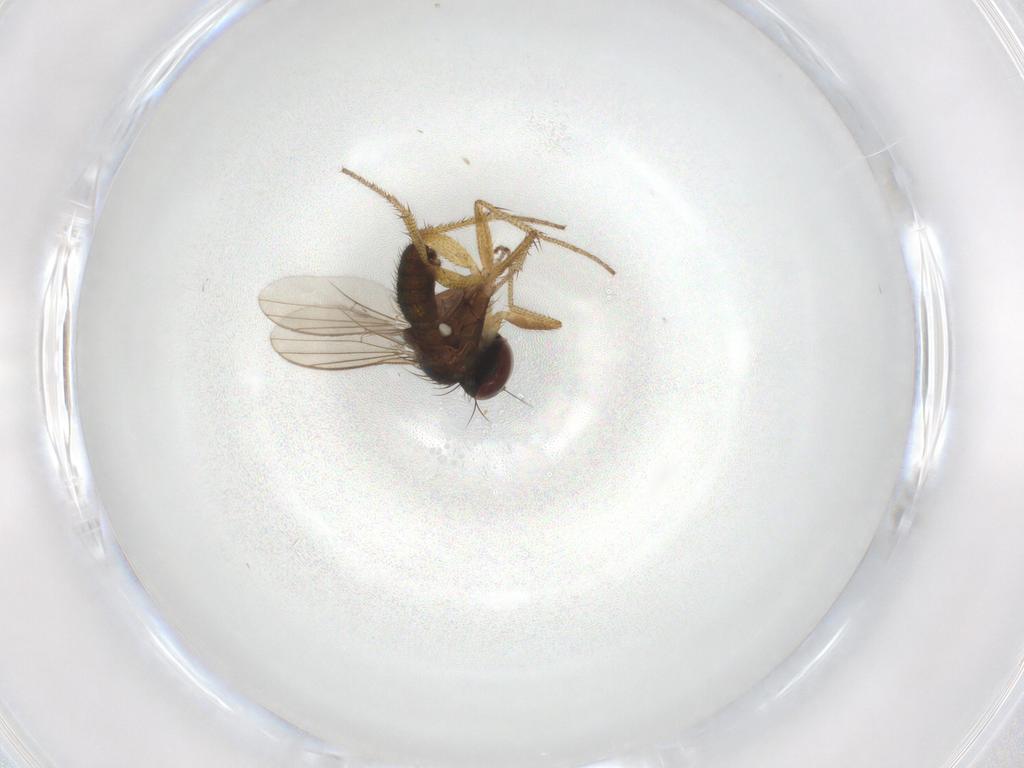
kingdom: Animalia
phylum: Arthropoda
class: Insecta
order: Diptera
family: Dolichopodidae
